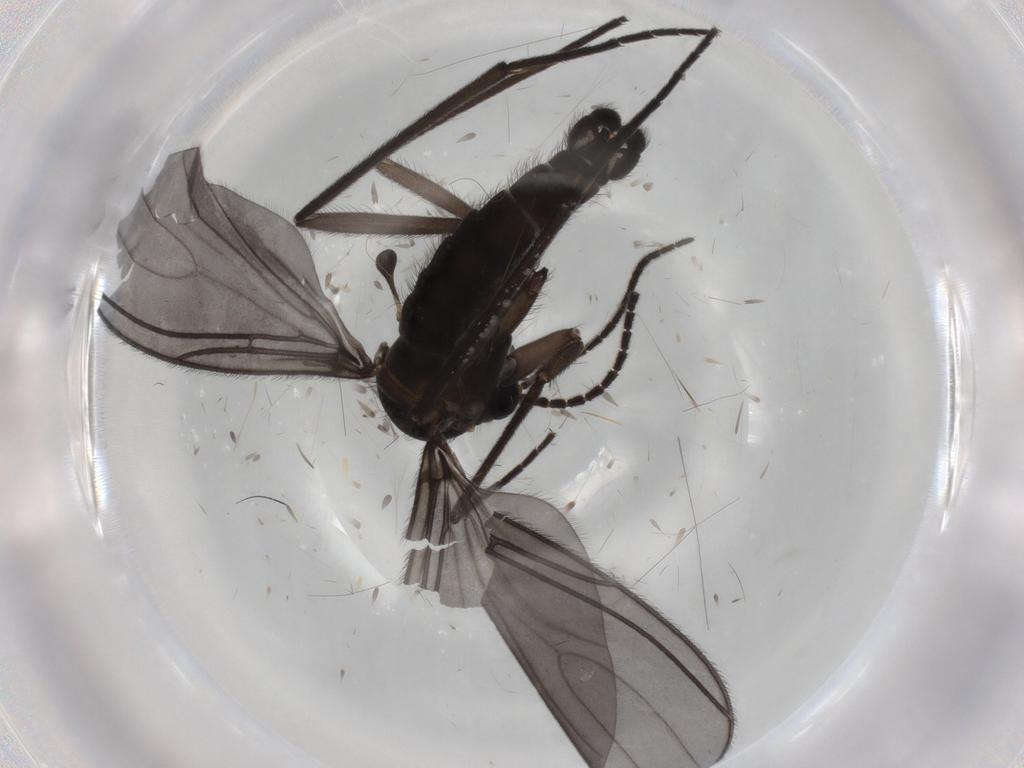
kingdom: Animalia
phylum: Arthropoda
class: Insecta
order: Diptera
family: Sciaridae
